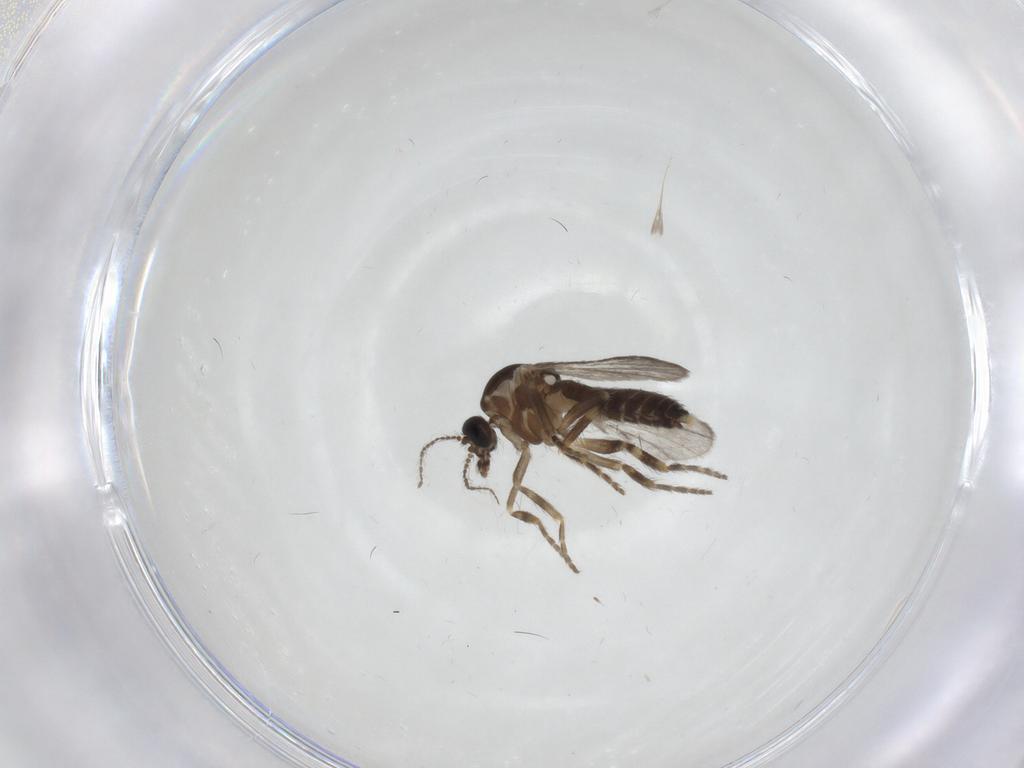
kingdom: Animalia
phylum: Arthropoda
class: Insecta
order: Diptera
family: Ceratopogonidae
